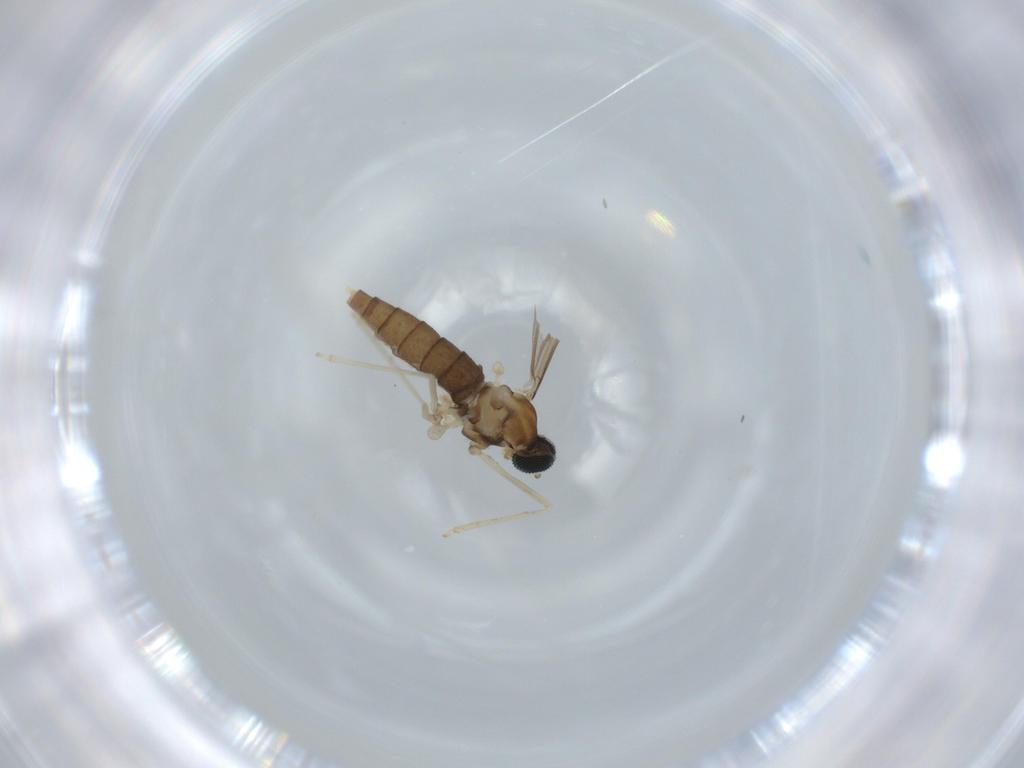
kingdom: Animalia
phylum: Arthropoda
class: Insecta
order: Diptera
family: Cecidomyiidae
